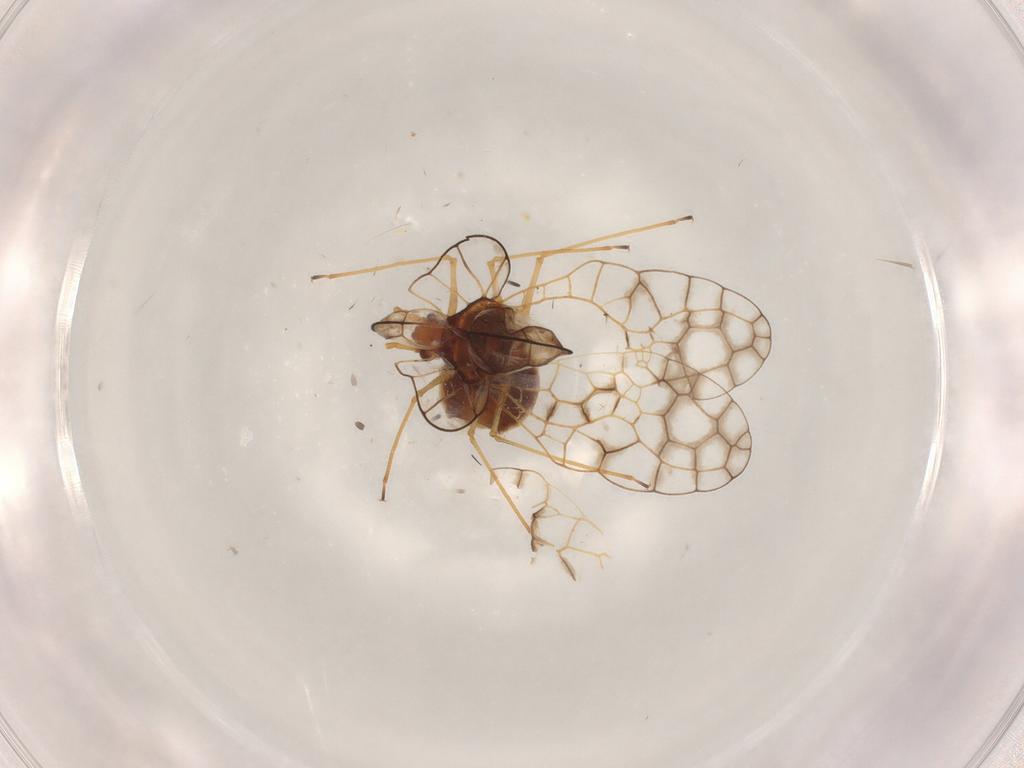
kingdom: Animalia
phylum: Arthropoda
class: Insecta
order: Hemiptera
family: Tingidae
